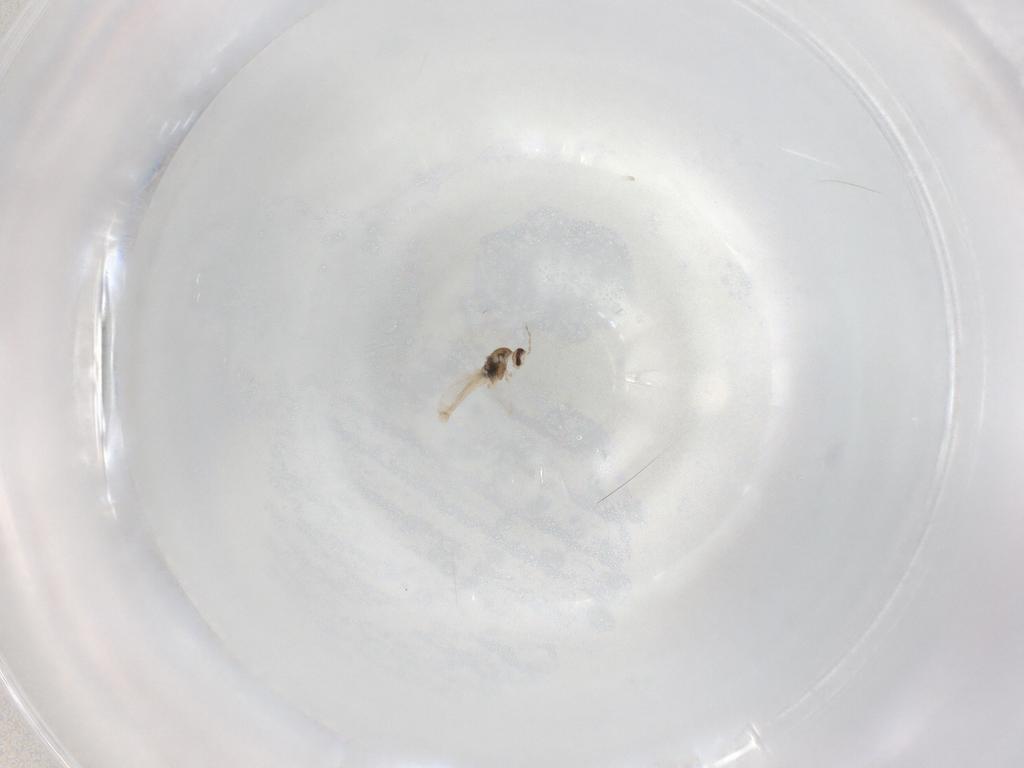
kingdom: Animalia
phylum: Arthropoda
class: Insecta
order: Diptera
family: Cecidomyiidae
